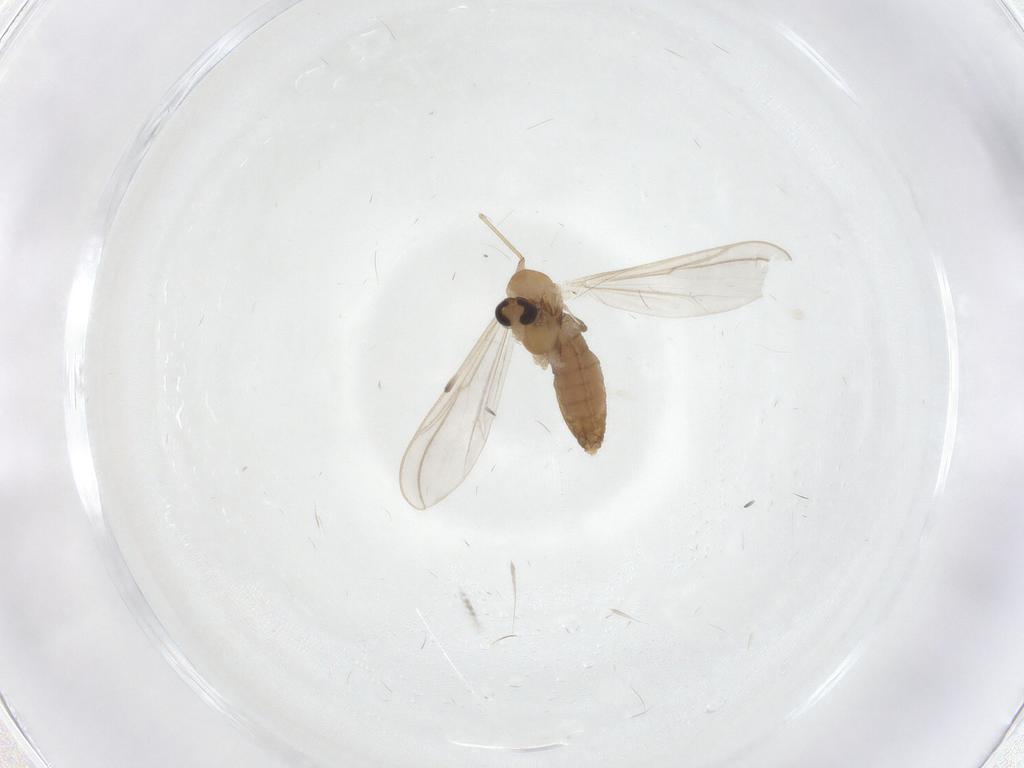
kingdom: Animalia
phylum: Arthropoda
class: Insecta
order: Diptera
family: Chironomidae
